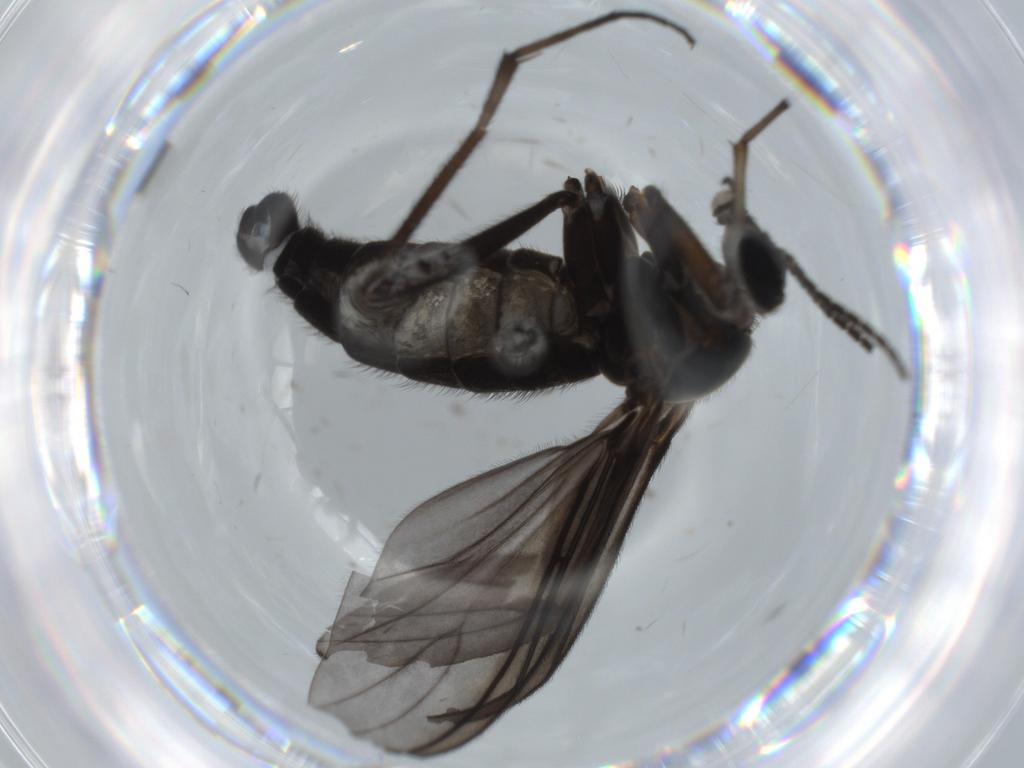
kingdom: Animalia
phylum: Arthropoda
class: Insecta
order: Diptera
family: Sciaridae
